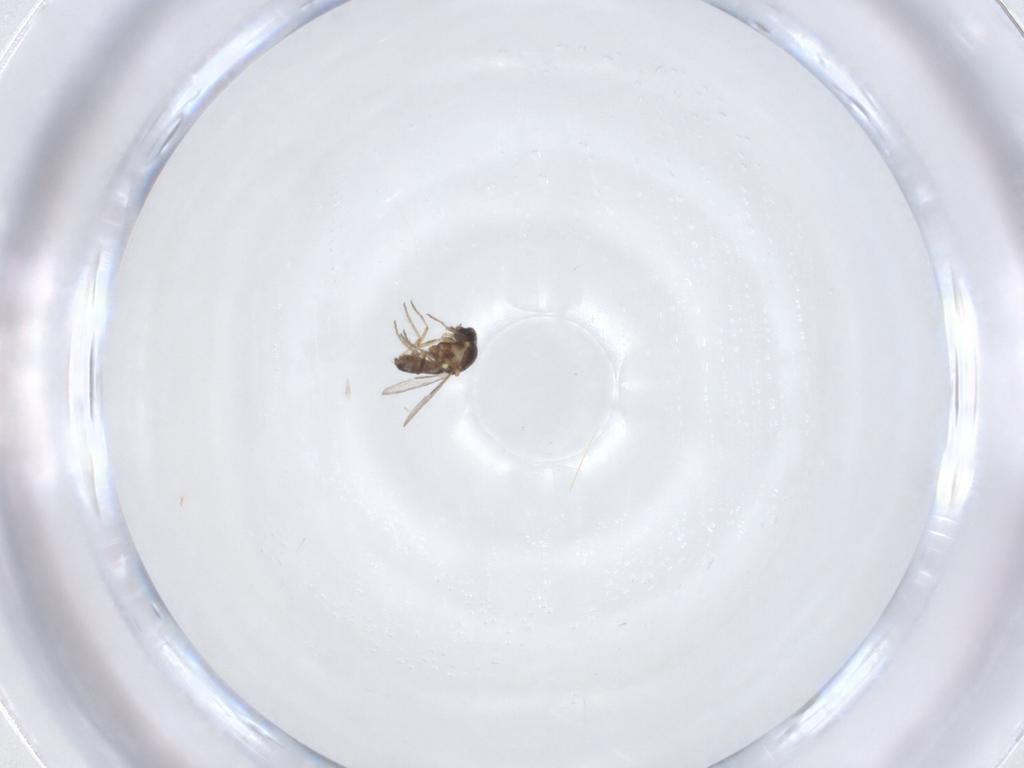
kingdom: Animalia
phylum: Arthropoda
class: Insecta
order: Diptera
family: Ceratopogonidae
